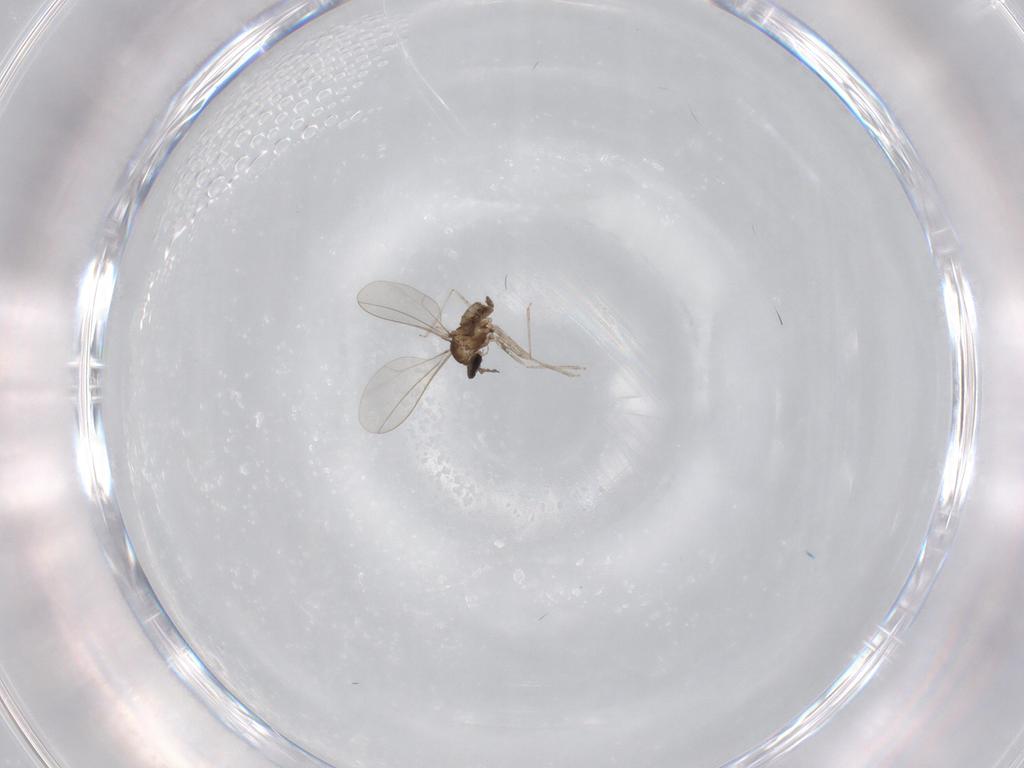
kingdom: Animalia
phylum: Arthropoda
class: Insecta
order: Diptera
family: Cecidomyiidae
